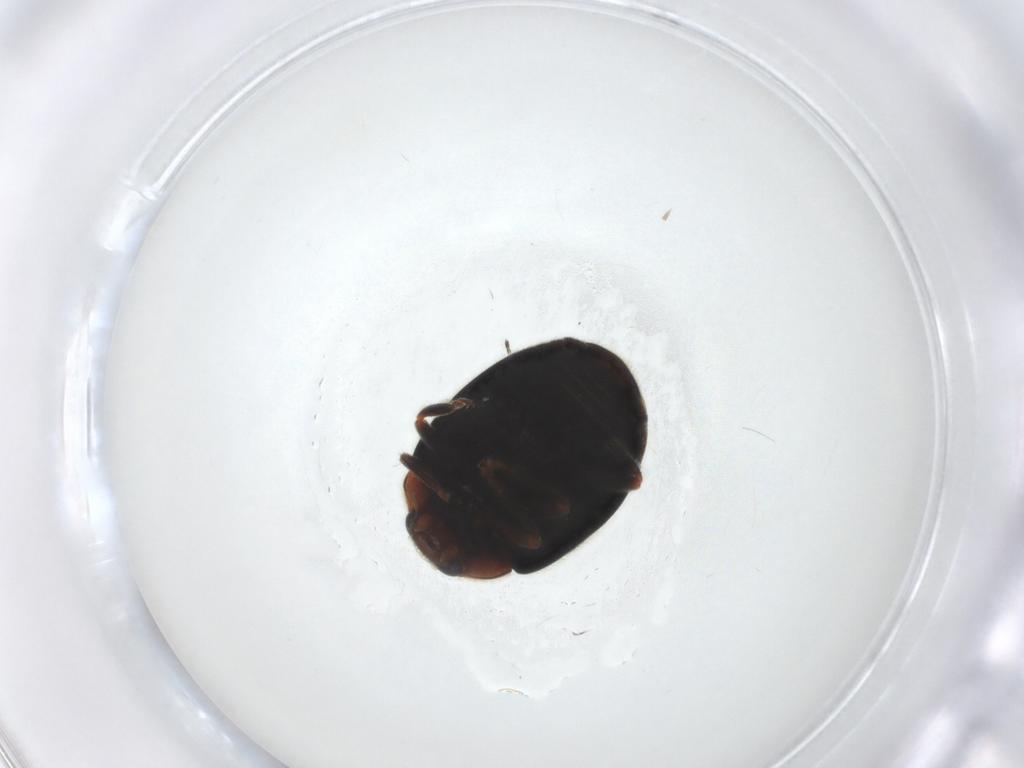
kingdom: Animalia
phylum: Arthropoda
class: Insecta
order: Coleoptera
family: Coccinellidae
